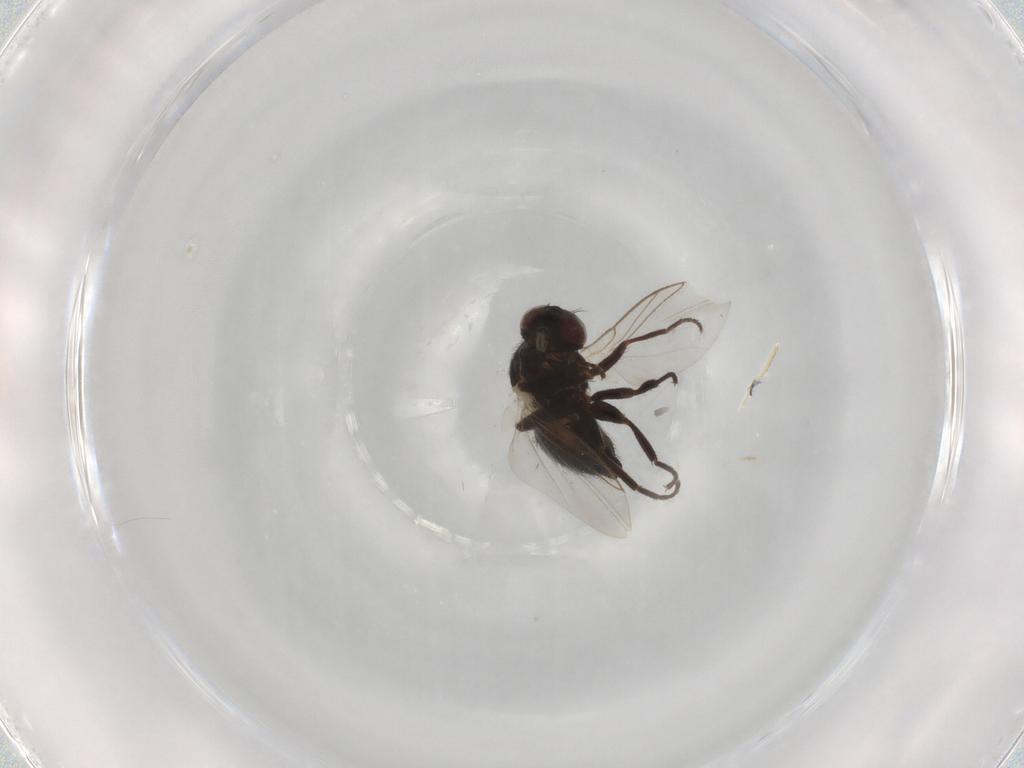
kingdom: Animalia
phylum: Arthropoda
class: Insecta
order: Diptera
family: Agromyzidae
